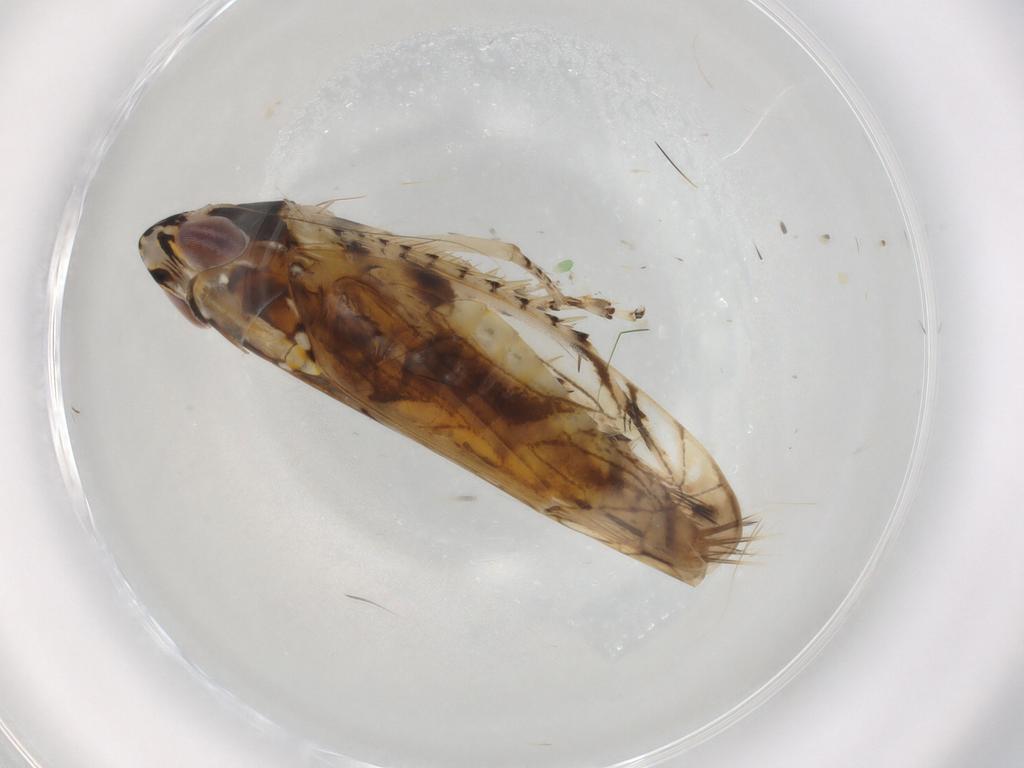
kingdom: Animalia
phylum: Arthropoda
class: Insecta
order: Hemiptera
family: Cicadellidae
